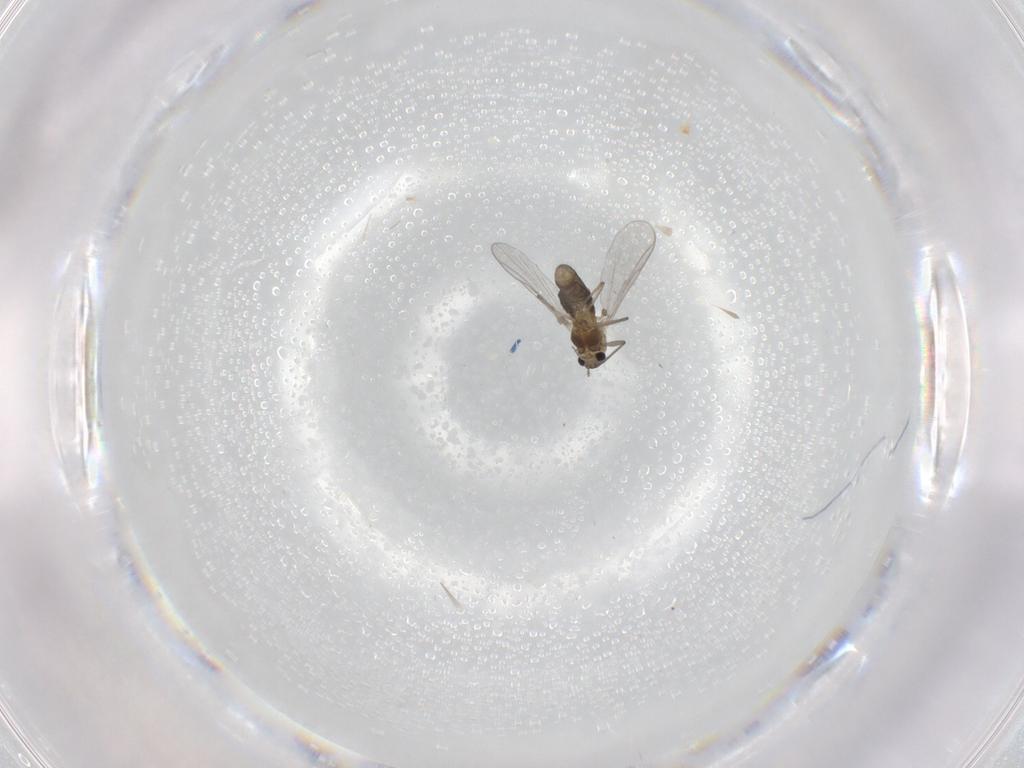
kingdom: Animalia
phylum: Arthropoda
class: Insecta
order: Diptera
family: Chironomidae
